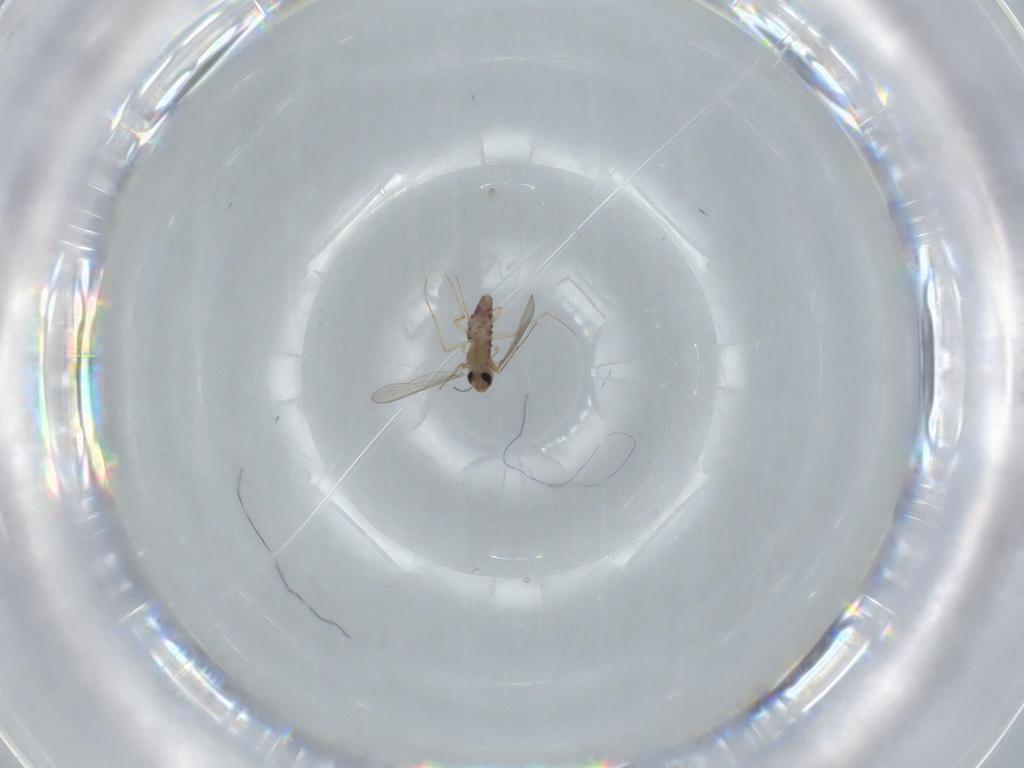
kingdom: Animalia
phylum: Arthropoda
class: Insecta
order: Diptera
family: Chironomidae
